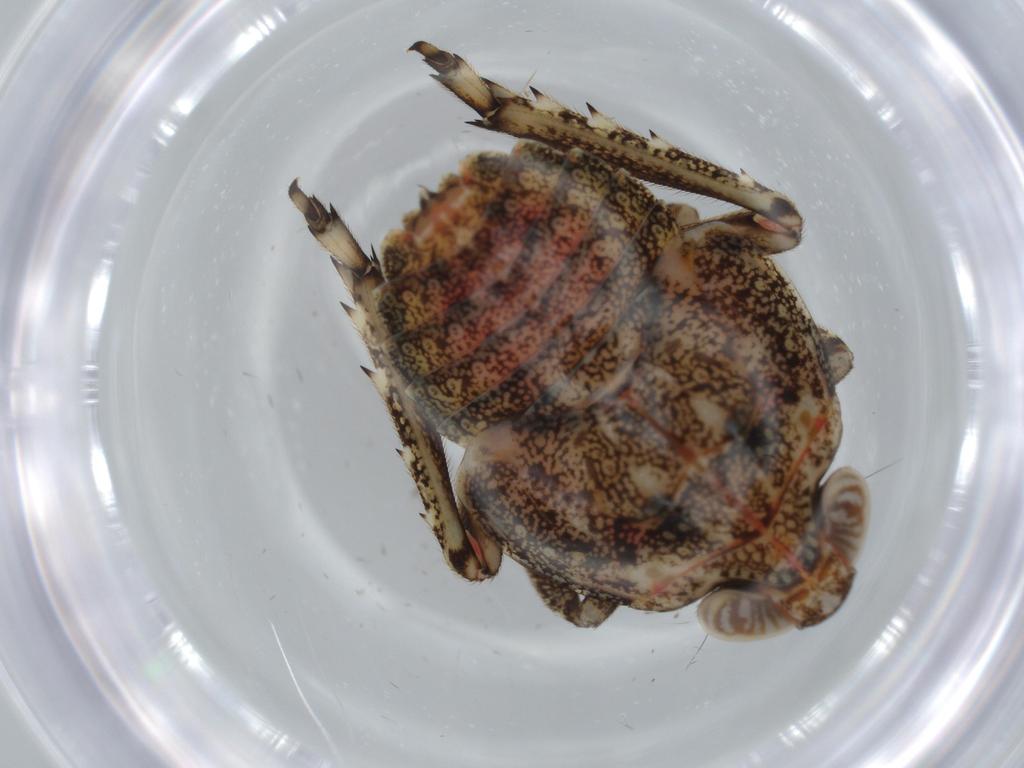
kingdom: Animalia
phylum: Arthropoda
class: Insecta
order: Hemiptera
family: Issidae
